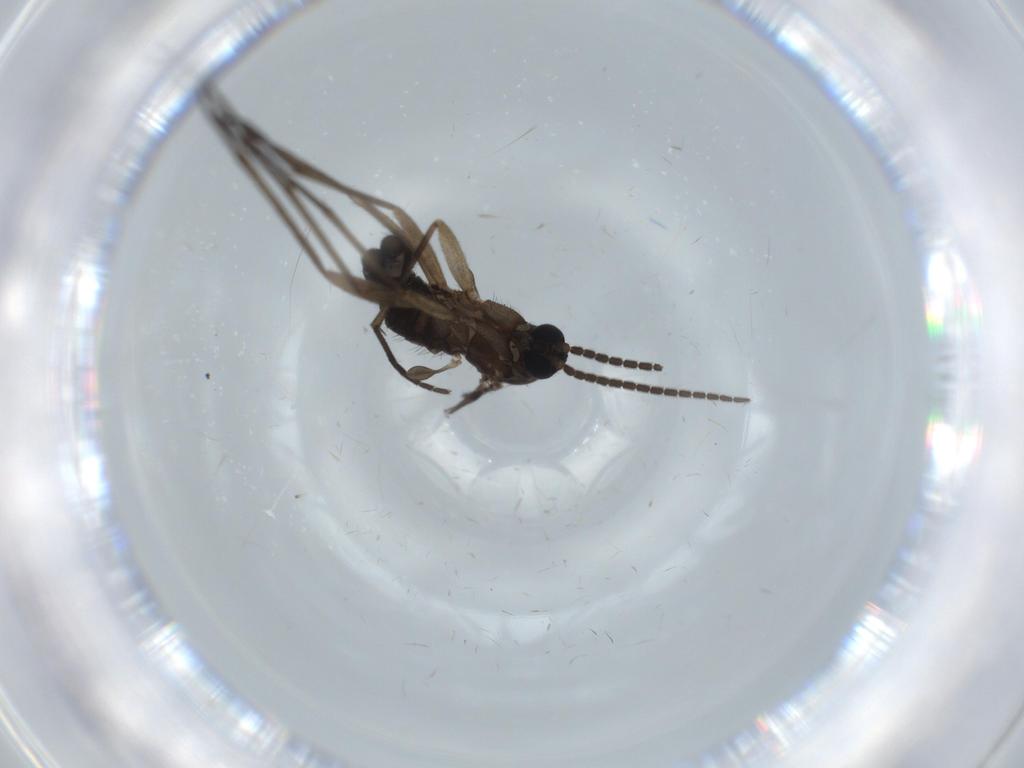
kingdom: Animalia
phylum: Arthropoda
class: Insecta
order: Diptera
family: Sciaridae
